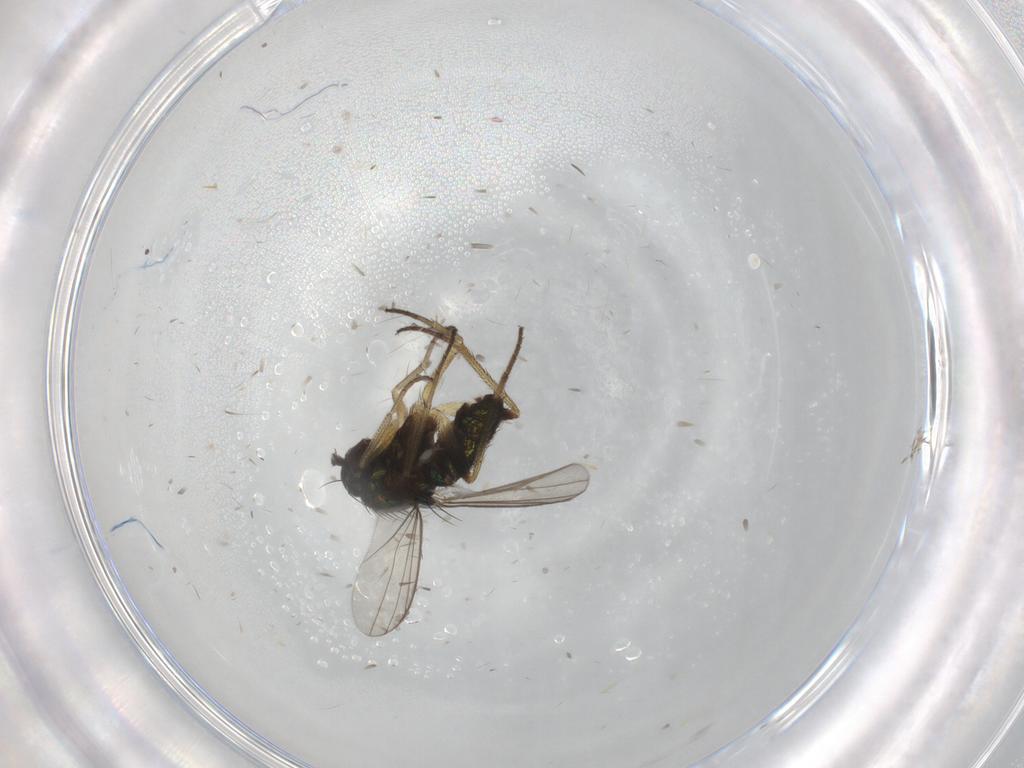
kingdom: Animalia
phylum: Arthropoda
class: Insecta
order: Diptera
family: Dolichopodidae
